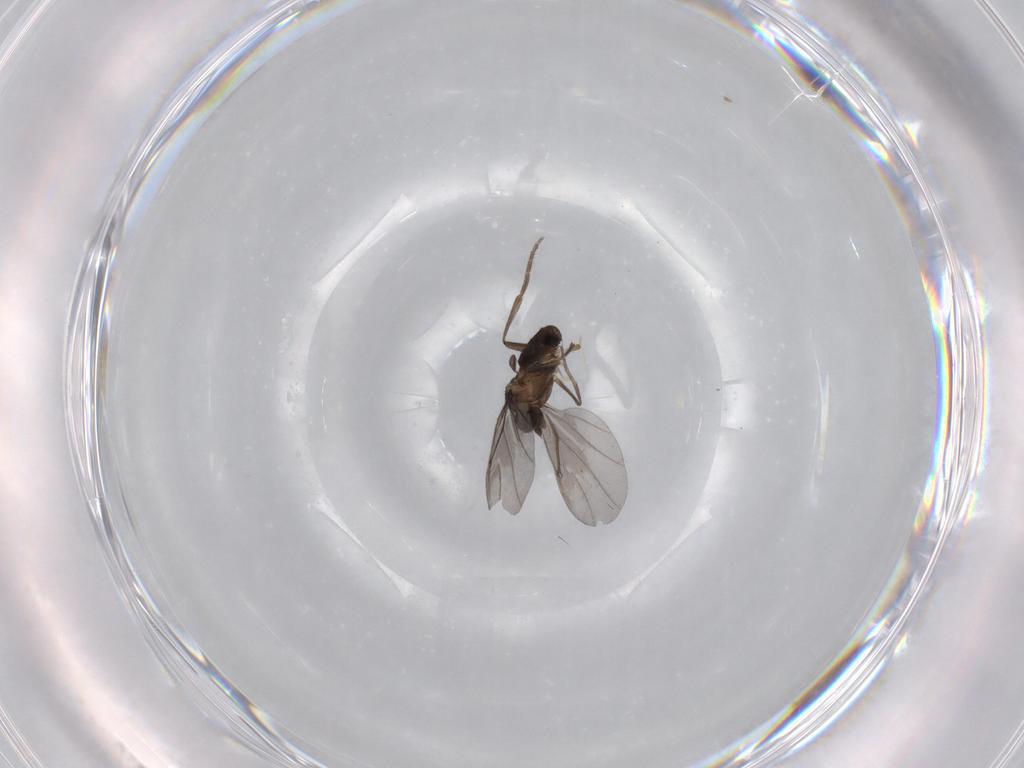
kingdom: Animalia
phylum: Arthropoda
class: Insecta
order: Diptera
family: Phoridae
